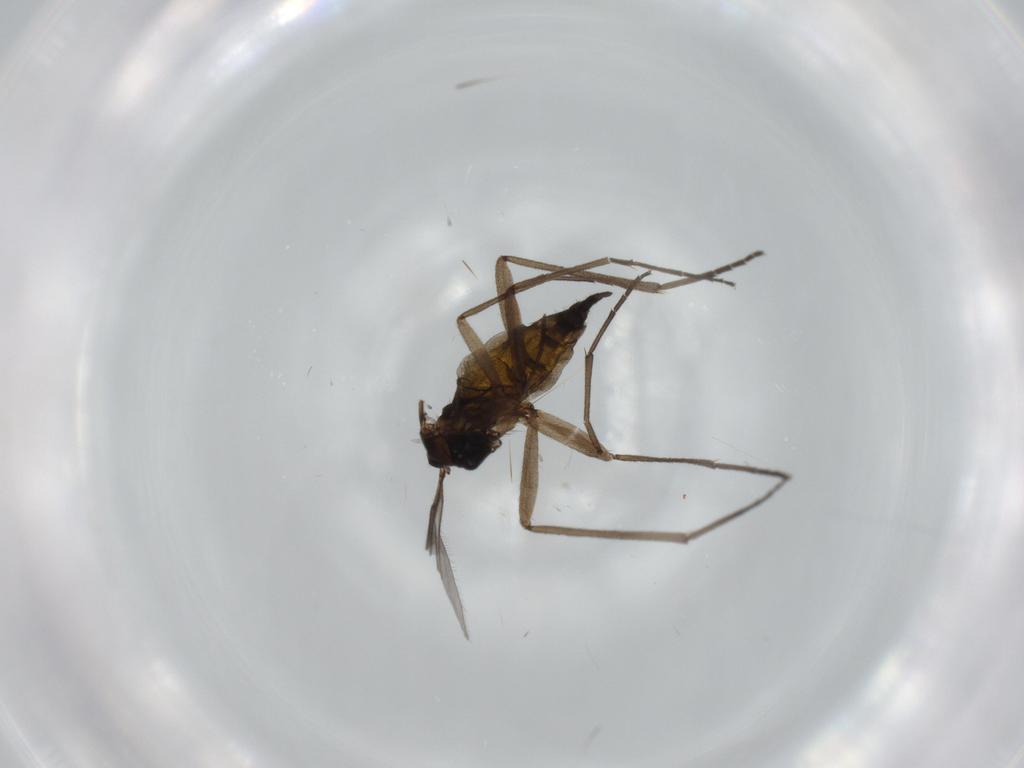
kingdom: Animalia
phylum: Arthropoda
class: Insecta
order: Diptera
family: Sciaridae
